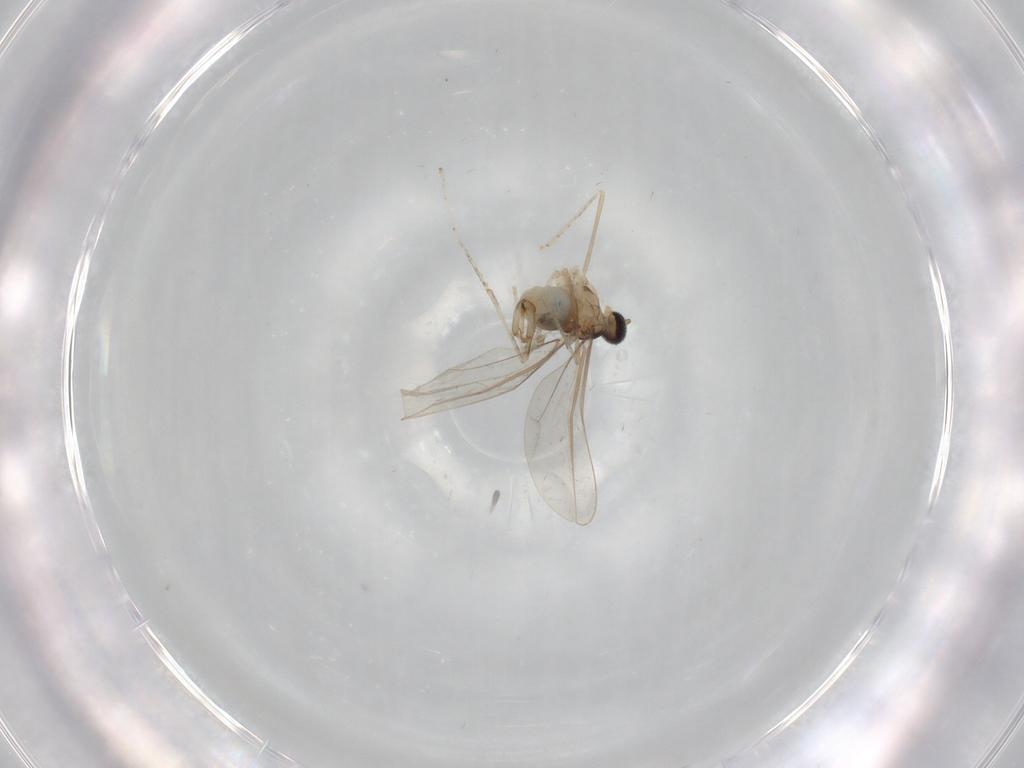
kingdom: Animalia
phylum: Arthropoda
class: Insecta
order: Diptera
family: Cecidomyiidae
